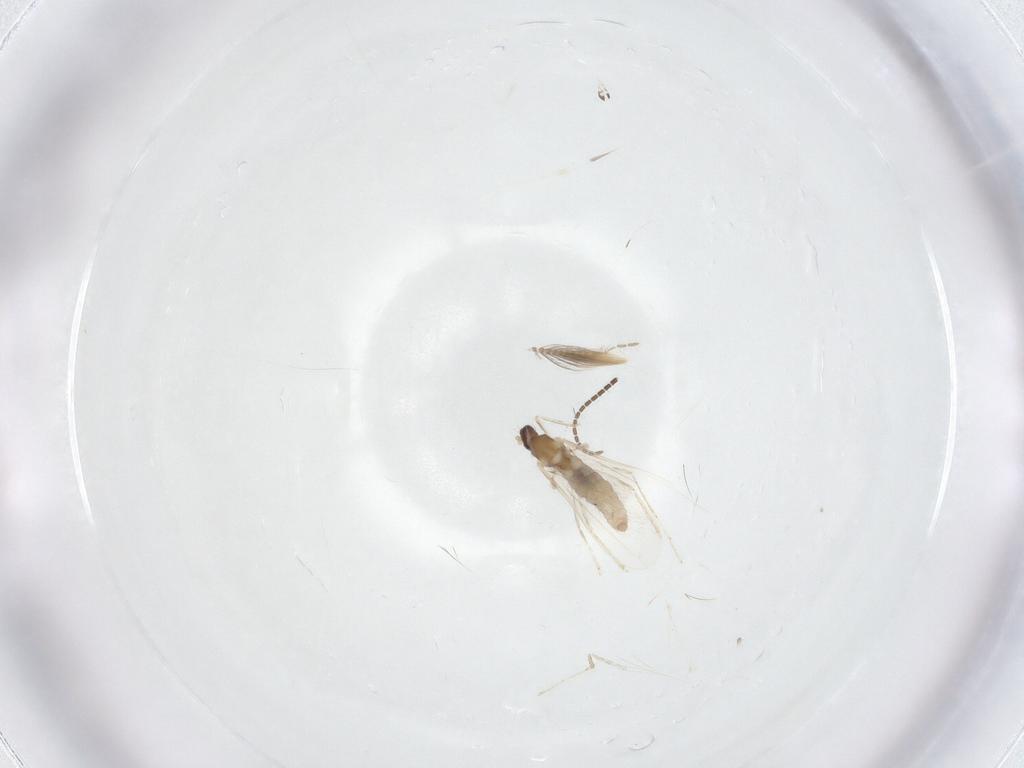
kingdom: Animalia
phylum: Arthropoda
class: Insecta
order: Diptera
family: Cecidomyiidae
